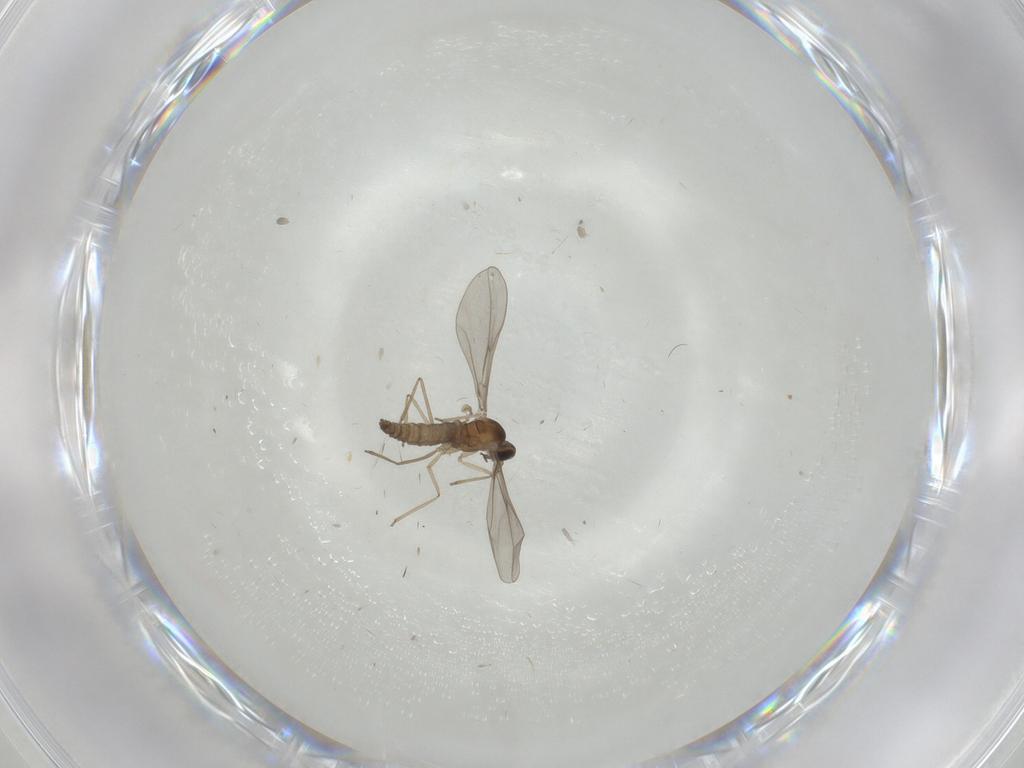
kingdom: Animalia
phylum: Arthropoda
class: Insecta
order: Diptera
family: Cecidomyiidae
